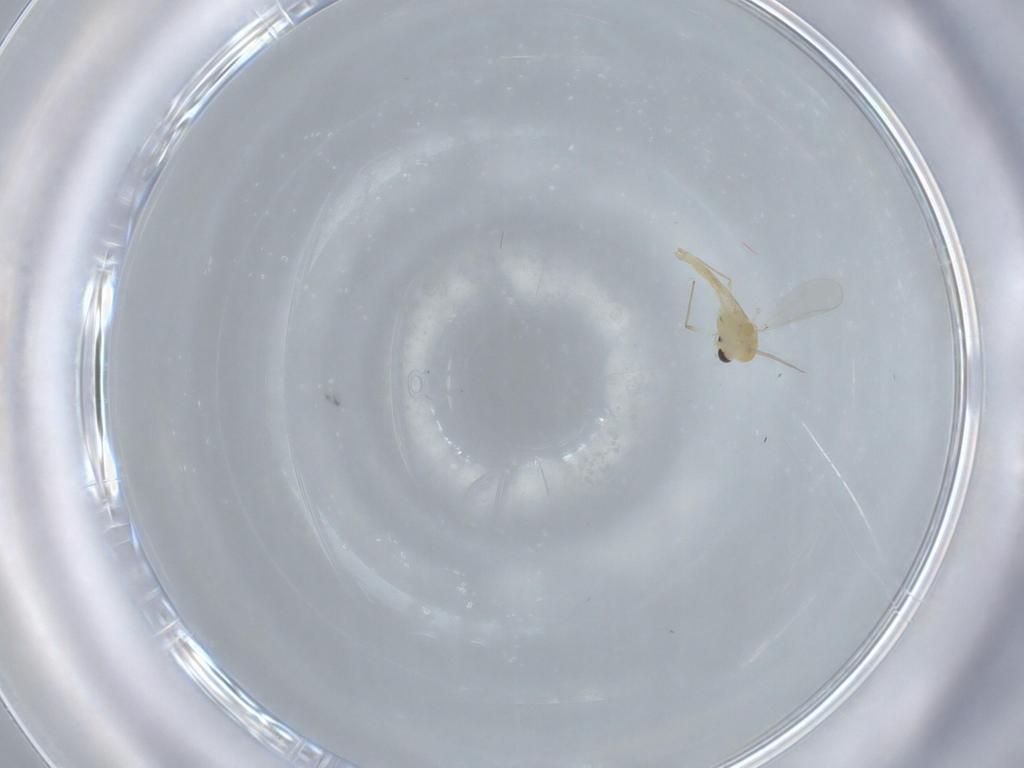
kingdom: Animalia
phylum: Arthropoda
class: Insecta
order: Diptera
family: Chironomidae
